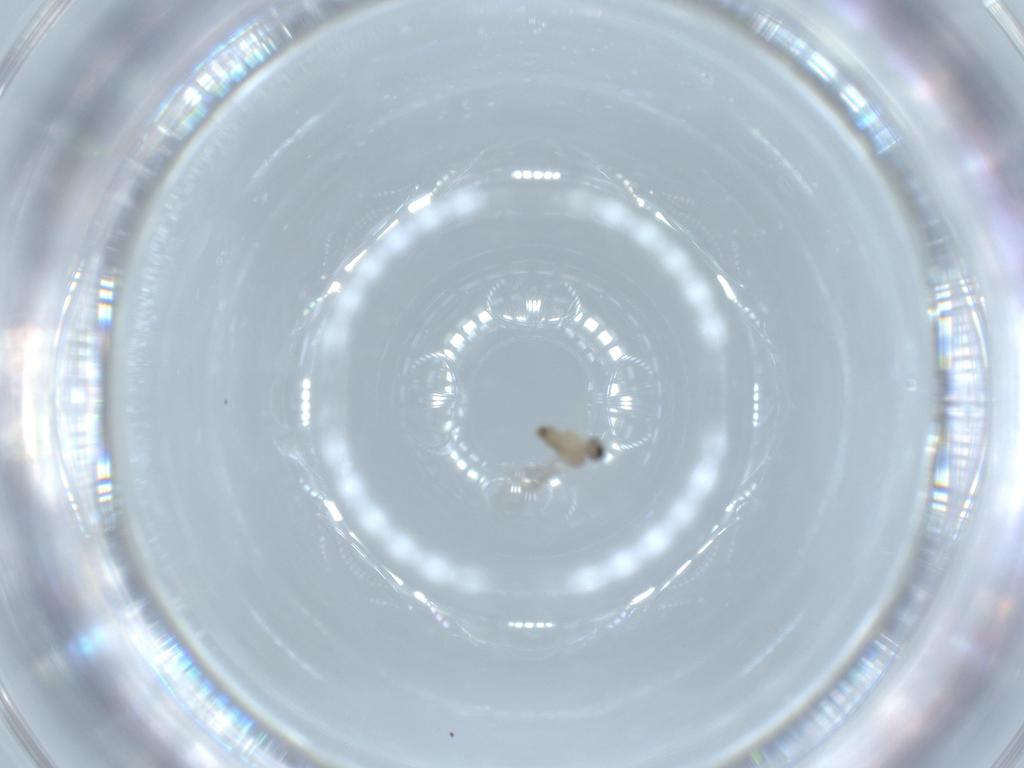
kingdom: Animalia
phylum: Arthropoda
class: Insecta
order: Diptera
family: Cecidomyiidae
